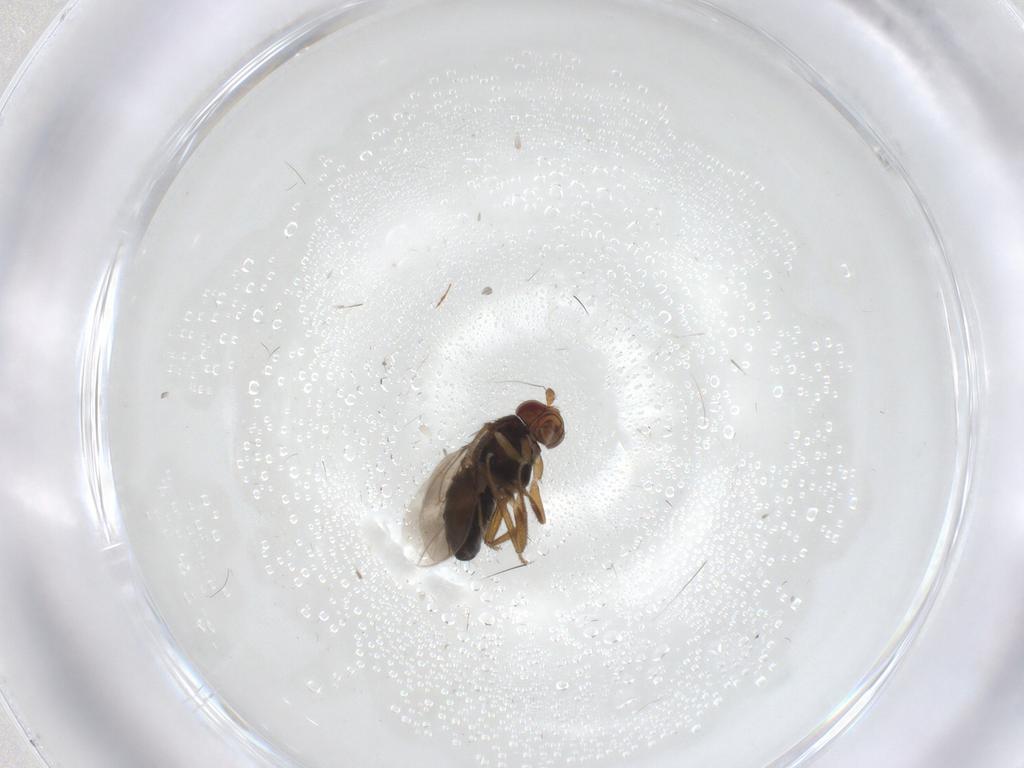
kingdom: Animalia
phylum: Arthropoda
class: Insecta
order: Diptera
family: Sphaeroceridae
